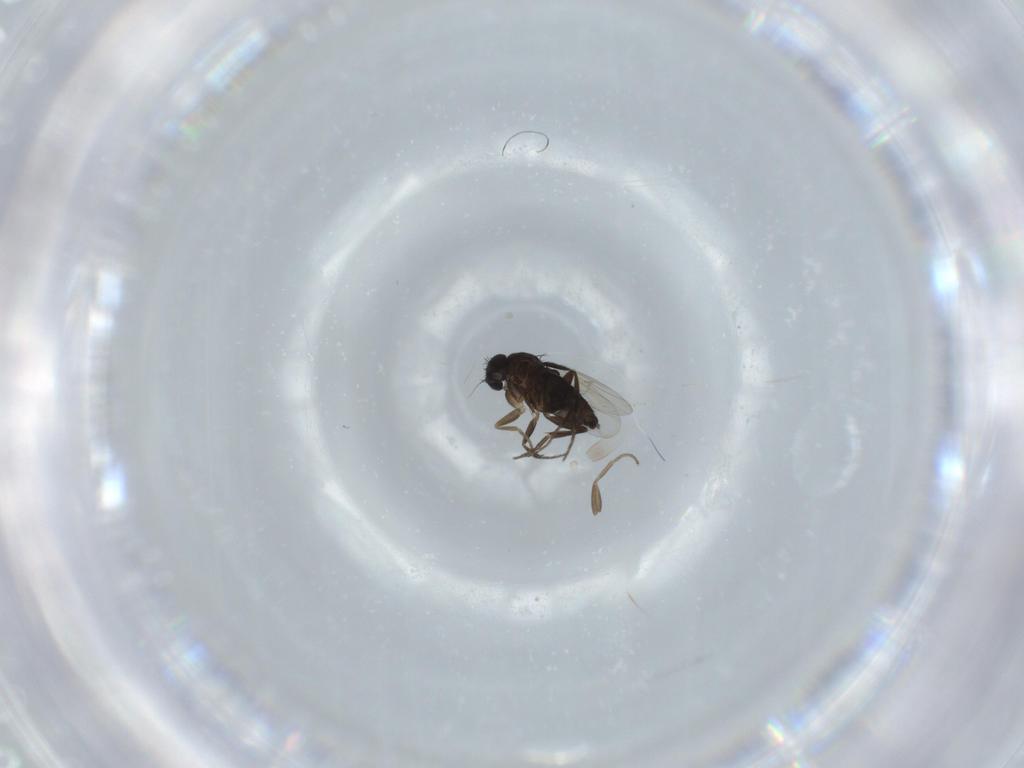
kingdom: Animalia
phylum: Arthropoda
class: Insecta
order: Diptera
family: Phoridae
